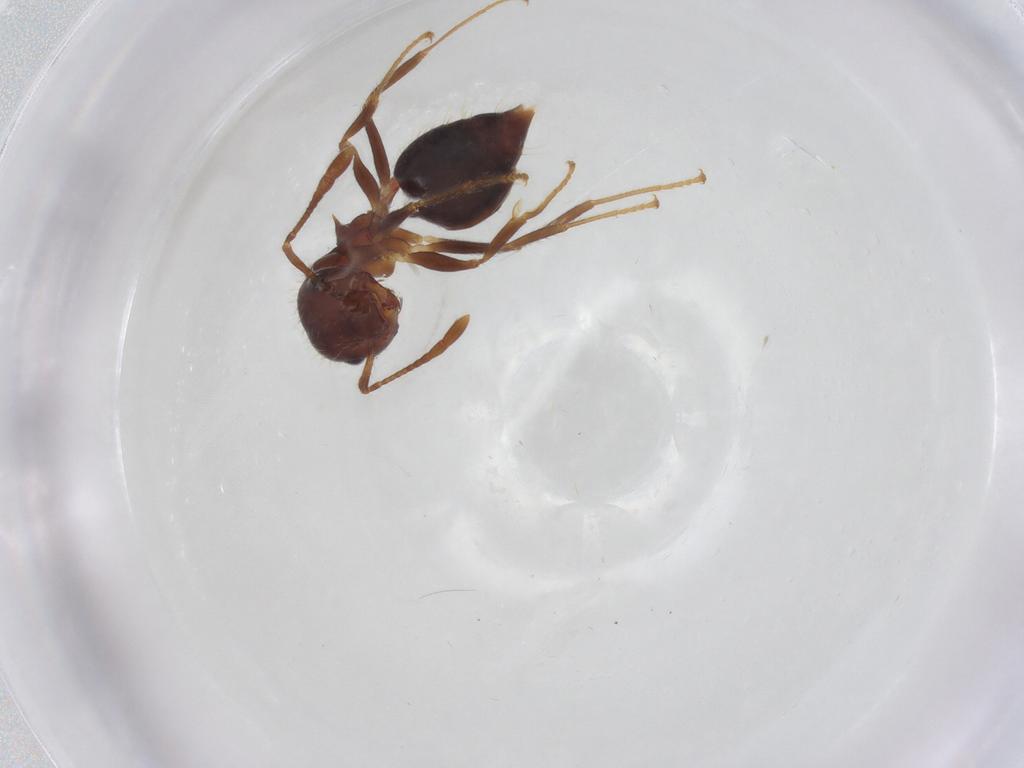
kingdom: Animalia
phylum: Arthropoda
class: Insecta
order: Hymenoptera
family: Formicidae
